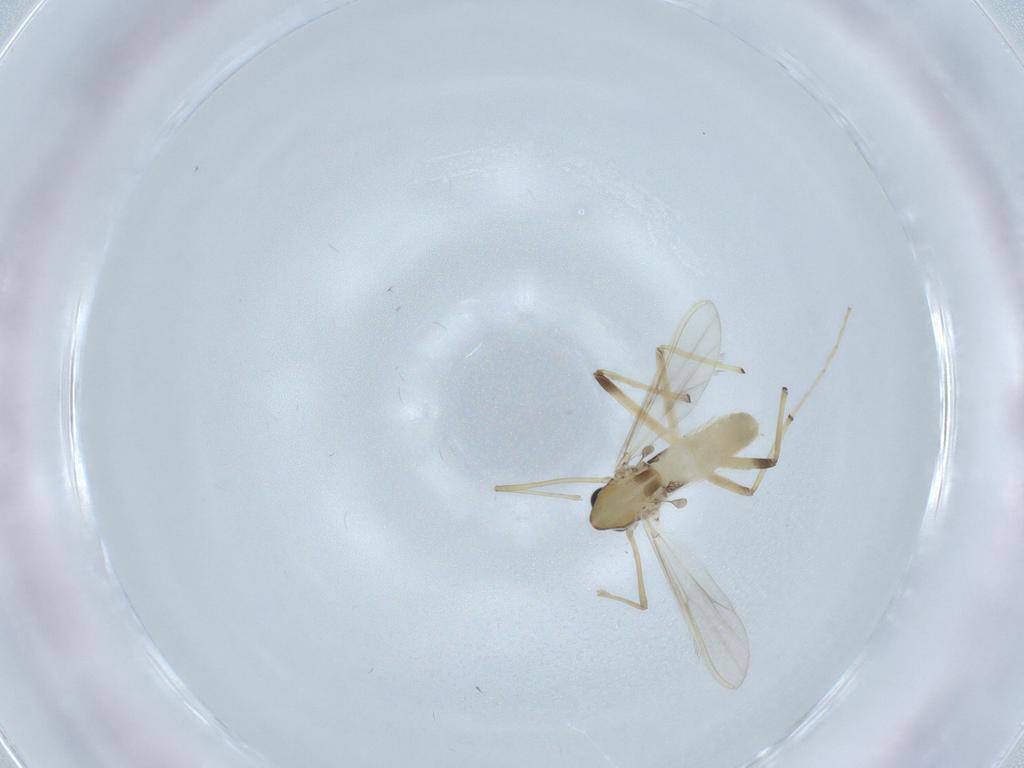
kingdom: Animalia
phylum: Arthropoda
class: Insecta
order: Diptera
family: Chironomidae
